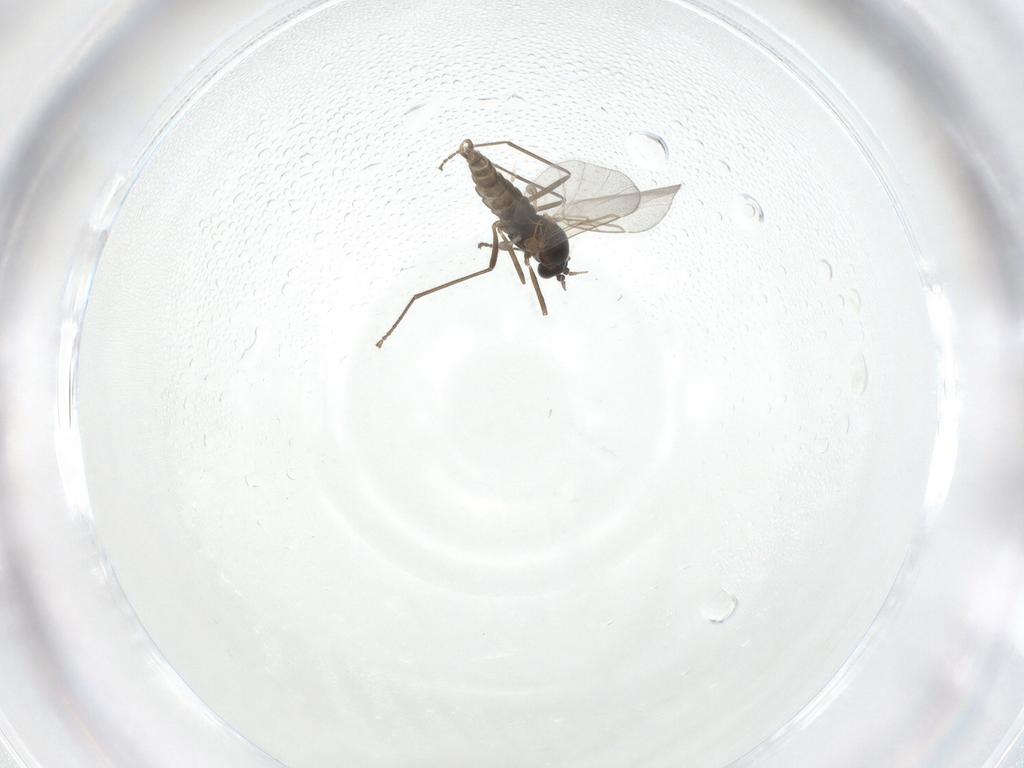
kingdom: Animalia
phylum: Arthropoda
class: Insecta
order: Diptera
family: Cecidomyiidae
